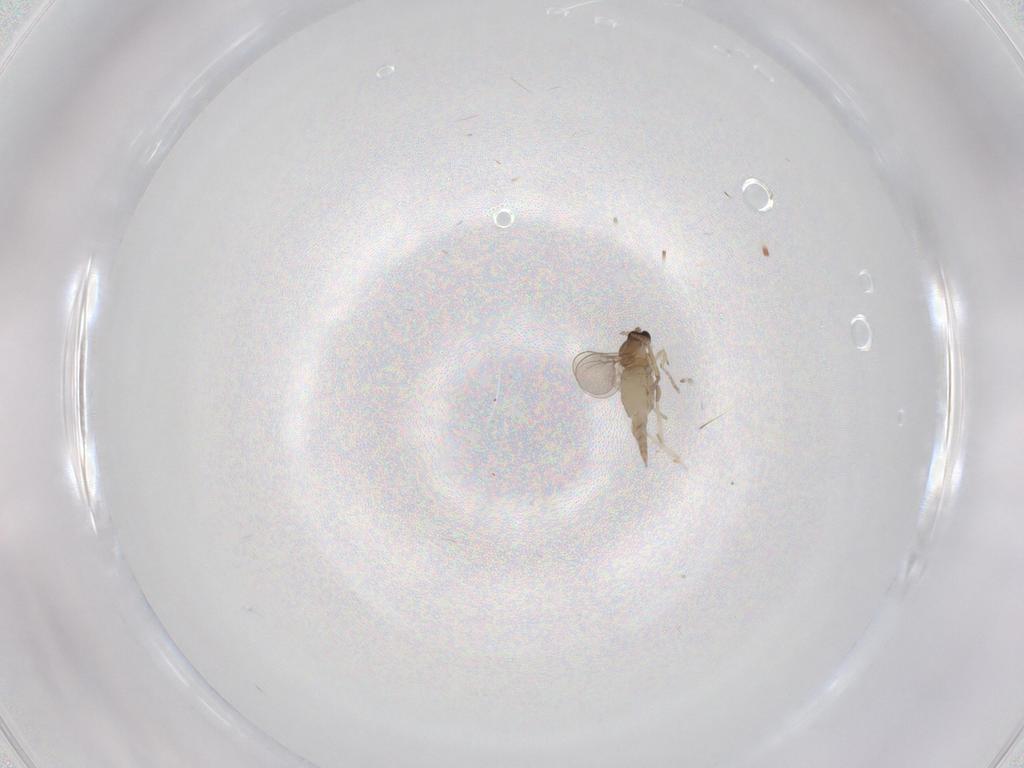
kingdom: Animalia
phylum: Arthropoda
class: Insecta
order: Diptera
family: Cecidomyiidae
